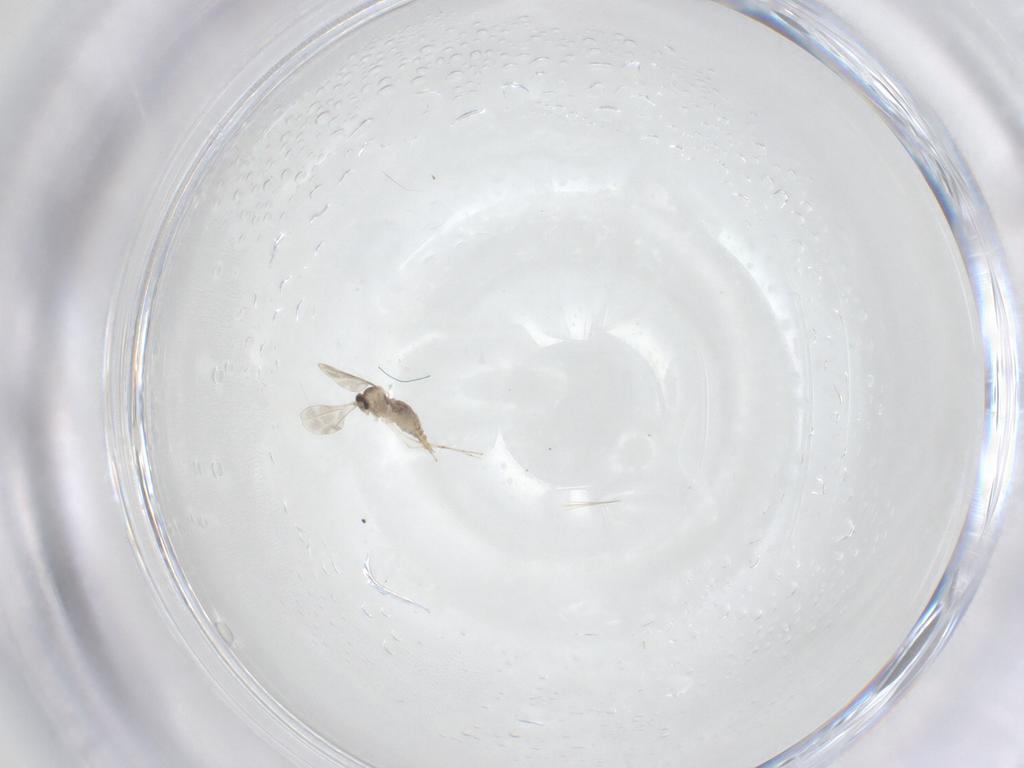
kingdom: Animalia
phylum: Arthropoda
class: Insecta
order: Diptera
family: Cecidomyiidae
